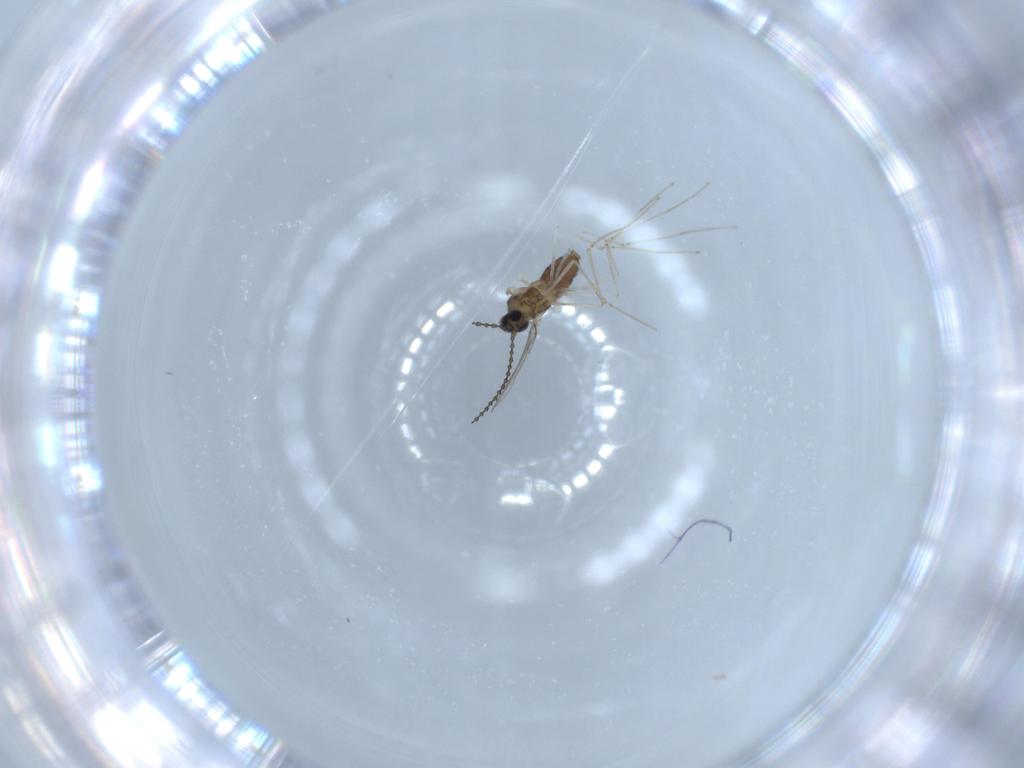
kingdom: Animalia
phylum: Arthropoda
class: Insecta
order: Diptera
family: Cecidomyiidae
